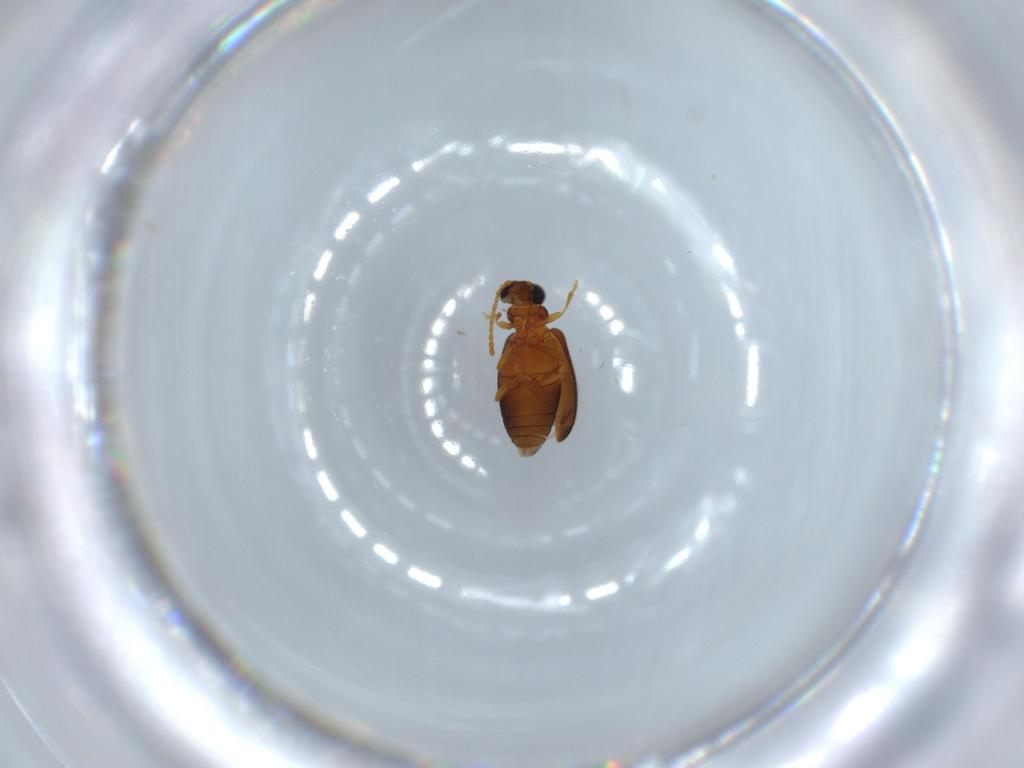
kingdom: Animalia
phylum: Arthropoda
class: Insecta
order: Coleoptera
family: Aderidae
